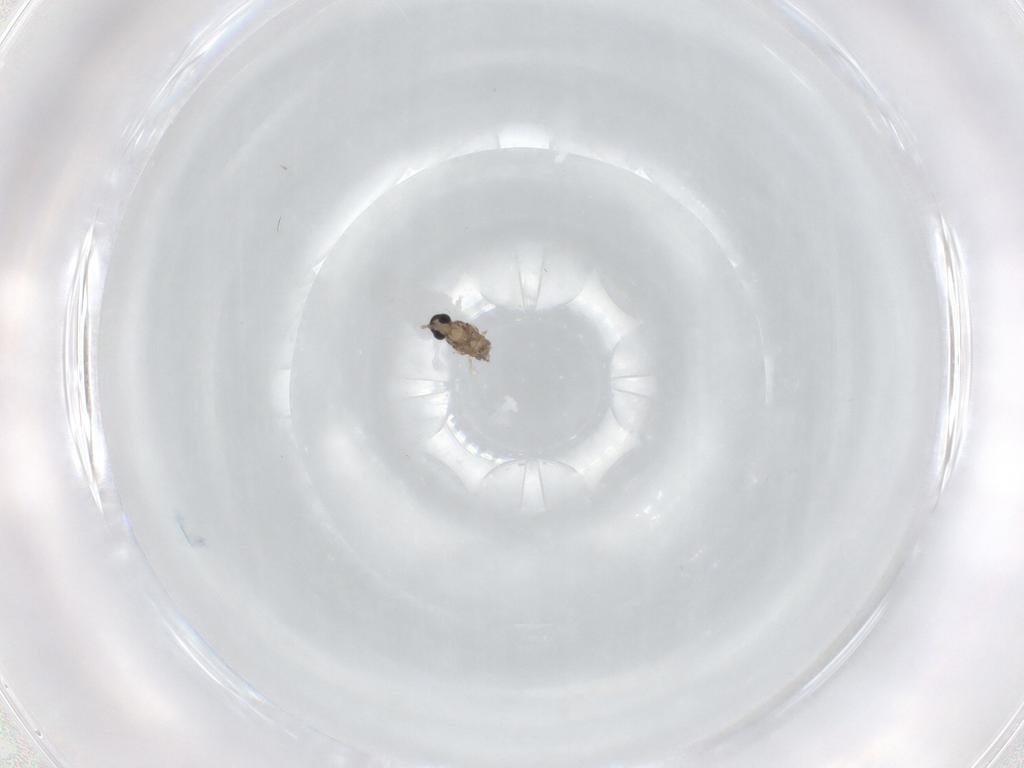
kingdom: Animalia
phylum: Arthropoda
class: Insecta
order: Diptera
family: Cecidomyiidae
